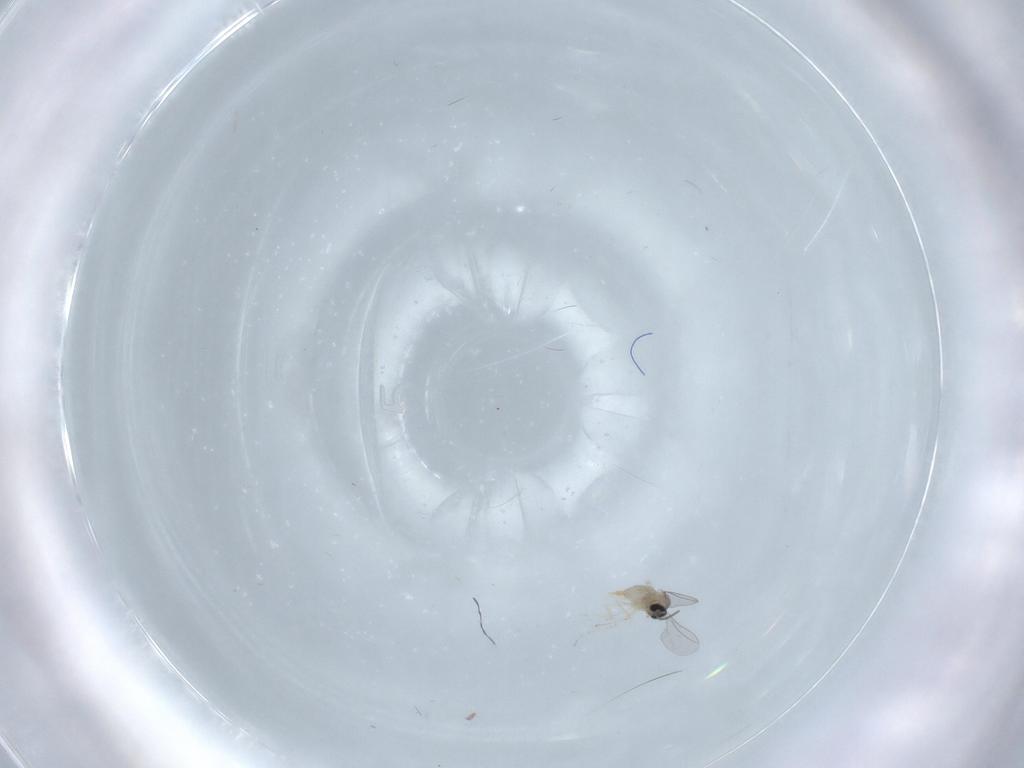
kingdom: Animalia
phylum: Arthropoda
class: Insecta
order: Diptera
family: Cecidomyiidae
